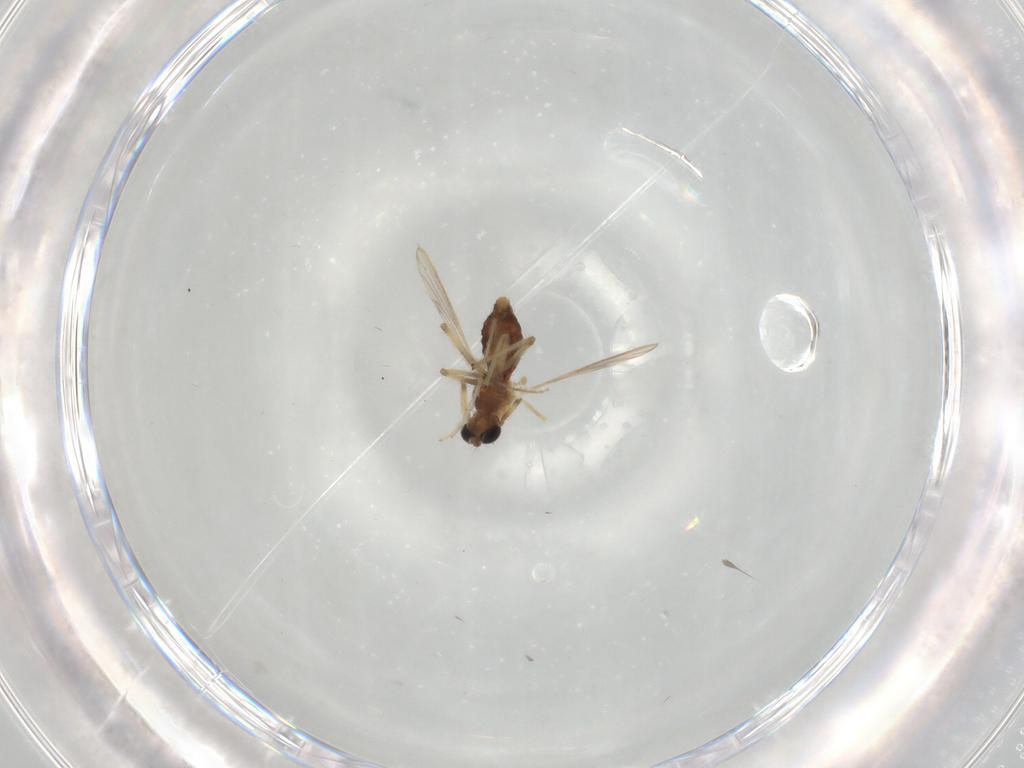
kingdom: Animalia
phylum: Arthropoda
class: Insecta
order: Diptera
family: Chironomidae
